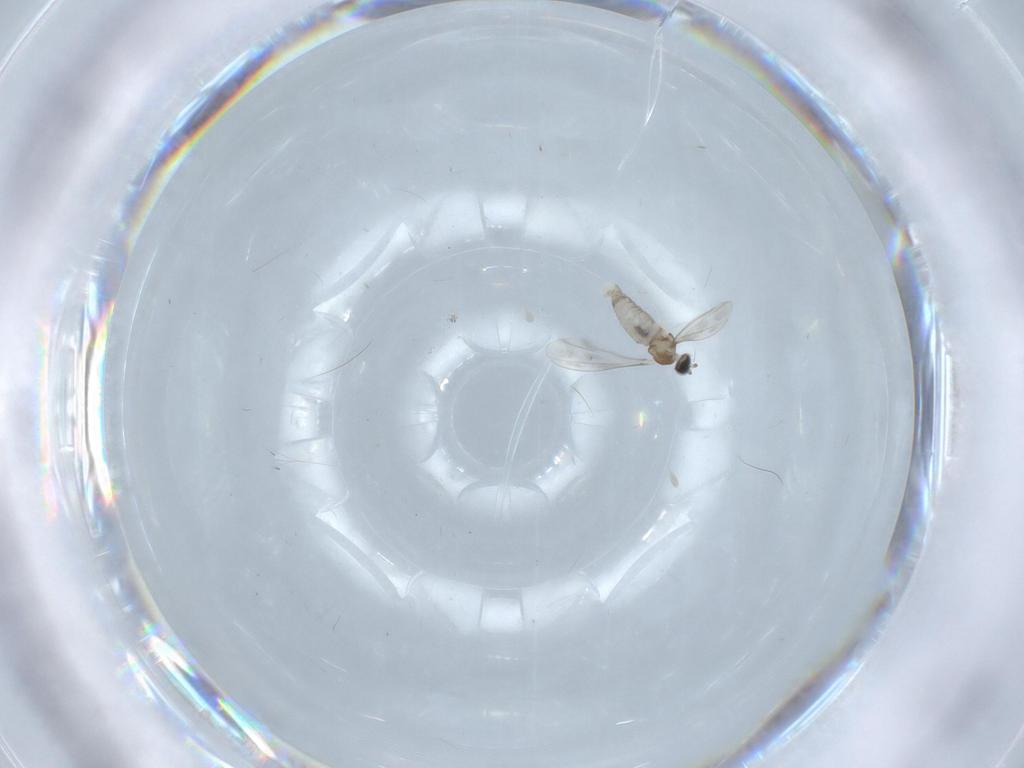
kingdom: Animalia
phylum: Arthropoda
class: Insecta
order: Diptera
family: Cecidomyiidae
